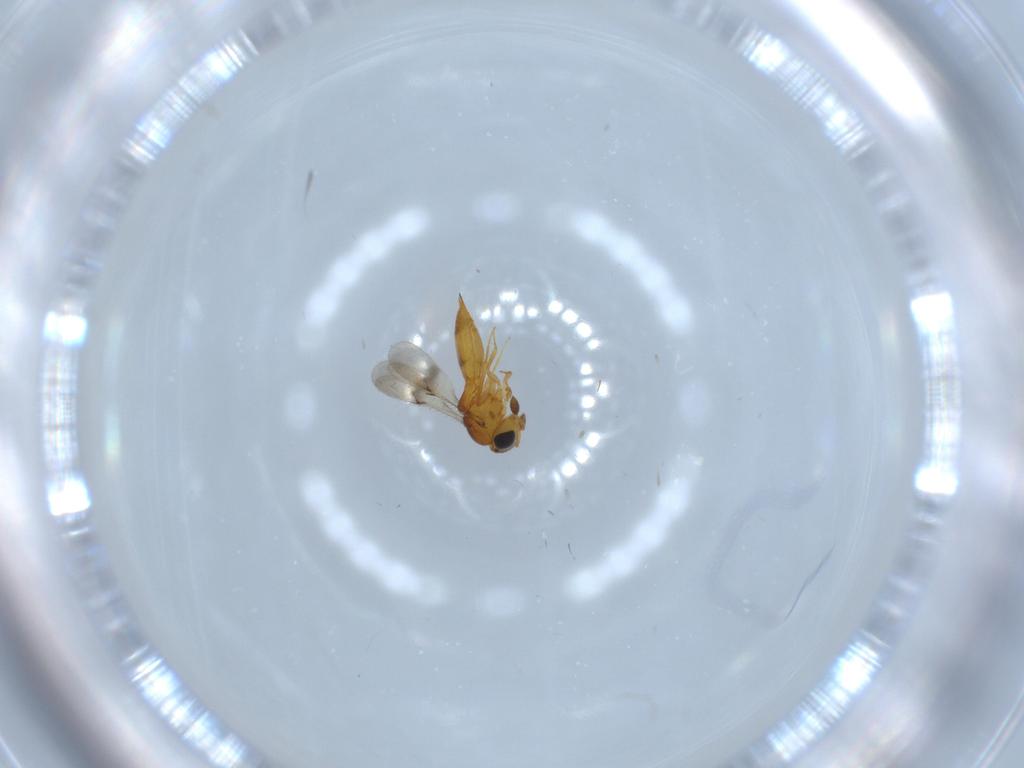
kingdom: Animalia
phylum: Arthropoda
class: Insecta
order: Hymenoptera
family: Scelionidae
